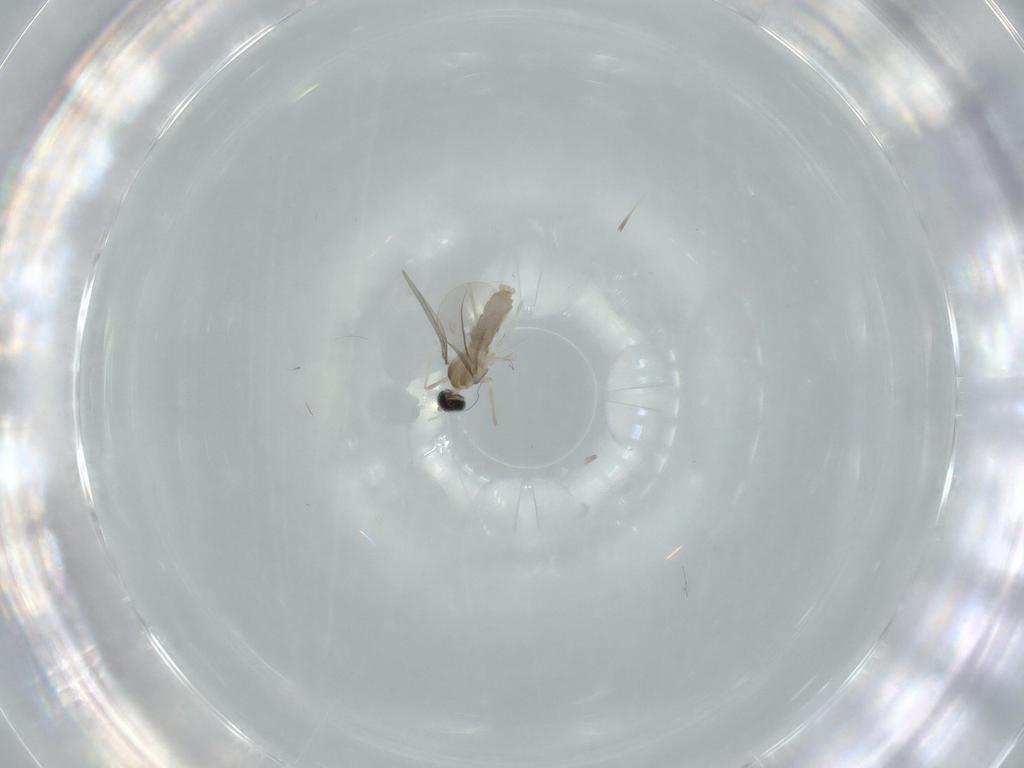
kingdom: Animalia
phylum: Arthropoda
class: Insecta
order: Diptera
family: Cecidomyiidae
